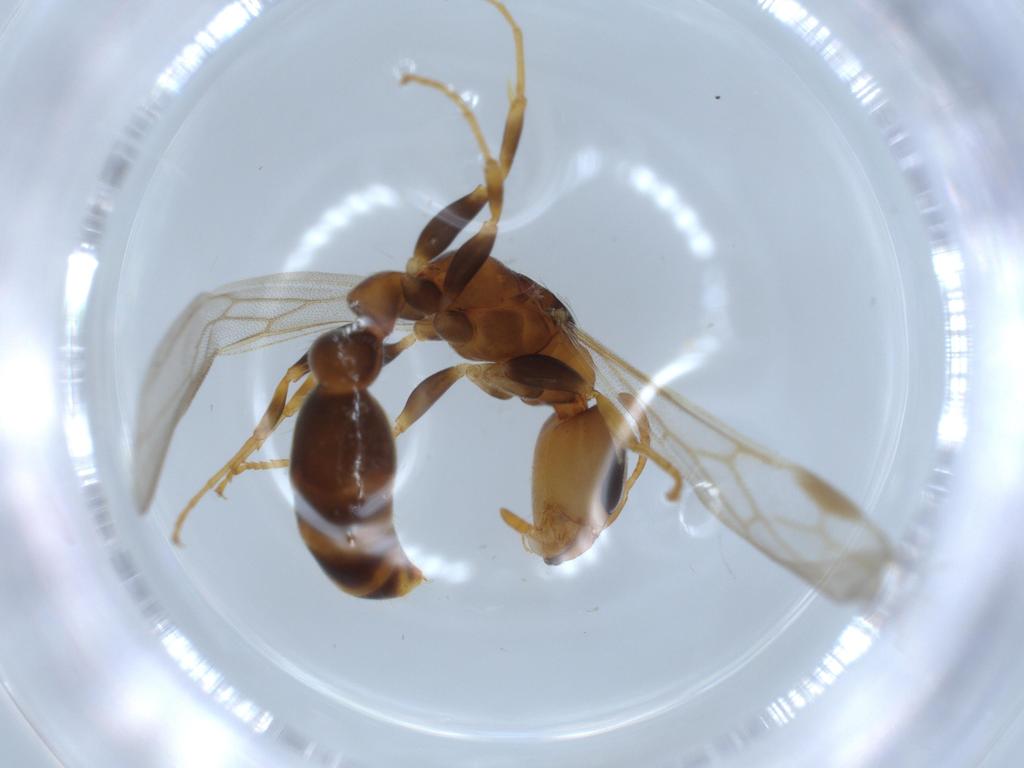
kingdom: Animalia
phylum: Arthropoda
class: Insecta
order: Hymenoptera
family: Formicidae
